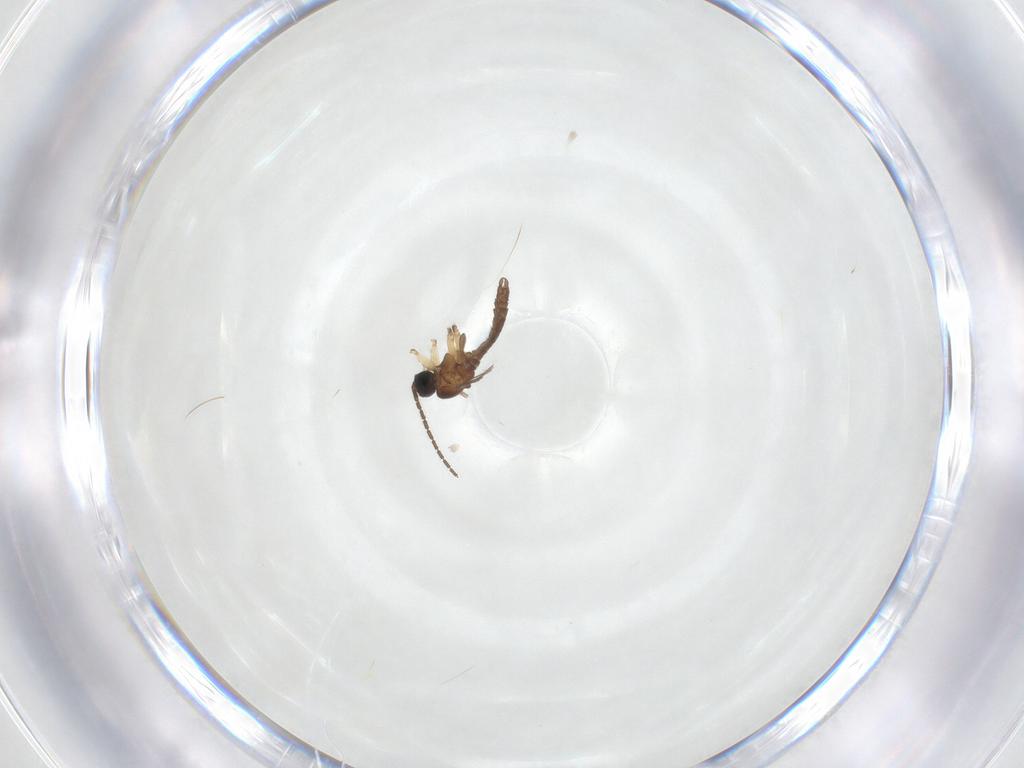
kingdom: Animalia
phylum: Arthropoda
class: Insecta
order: Diptera
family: Sciaridae
